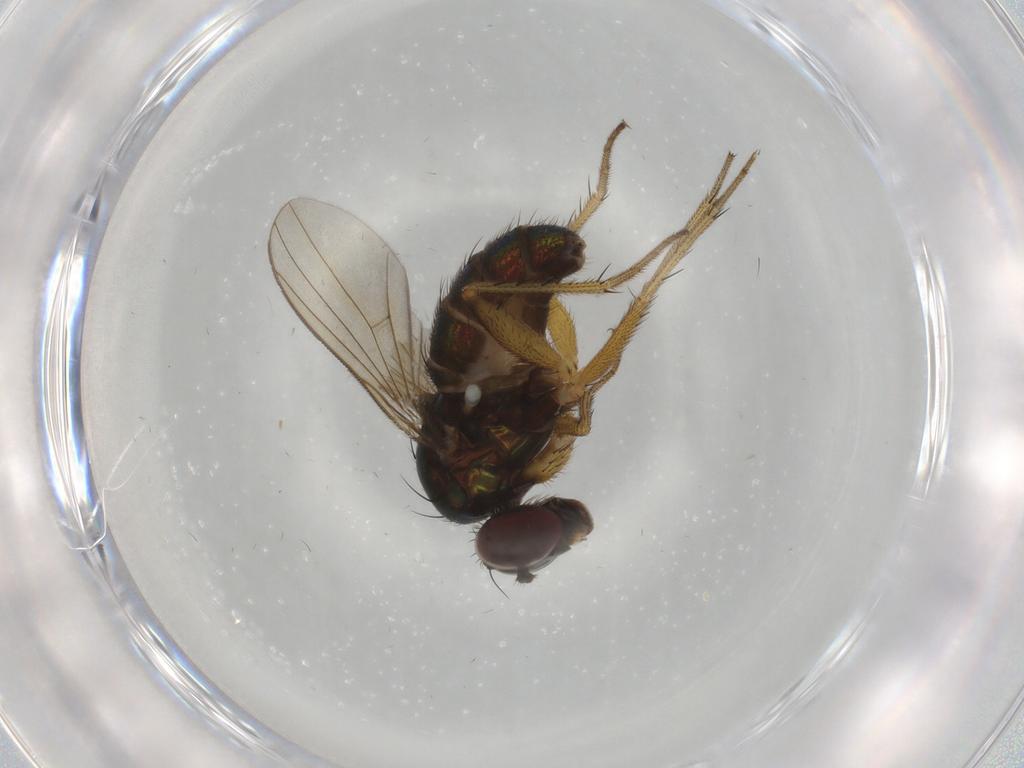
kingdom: Animalia
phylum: Arthropoda
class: Insecta
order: Diptera
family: Dolichopodidae
